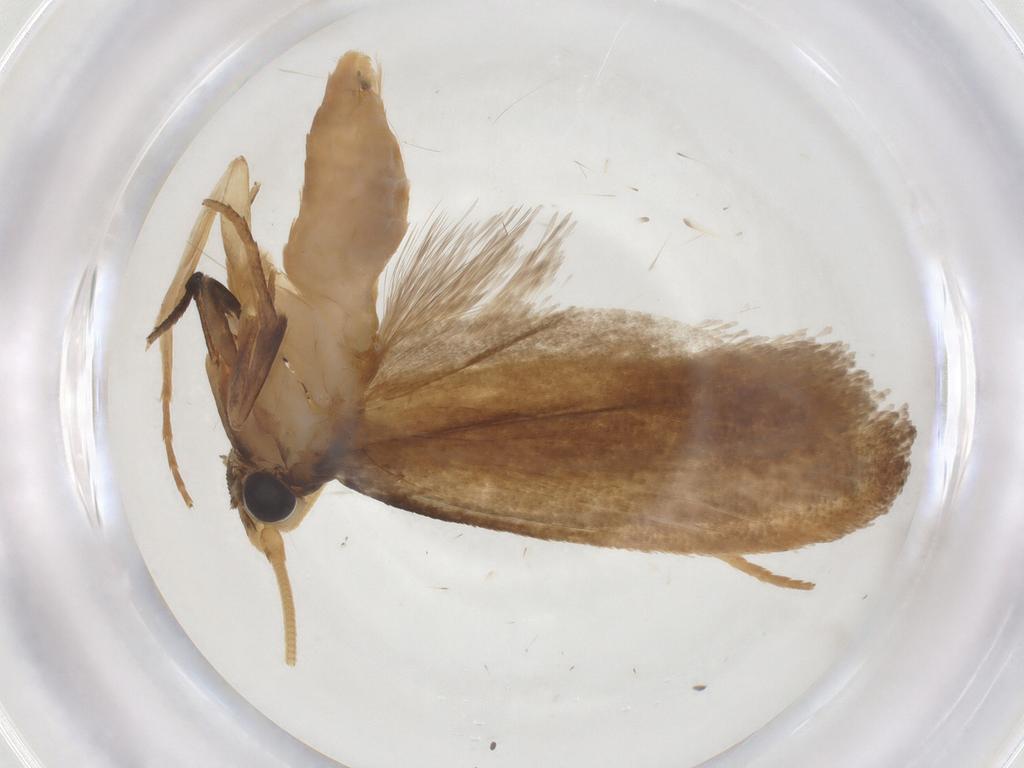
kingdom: Animalia
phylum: Arthropoda
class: Insecta
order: Lepidoptera
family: Erebidae
